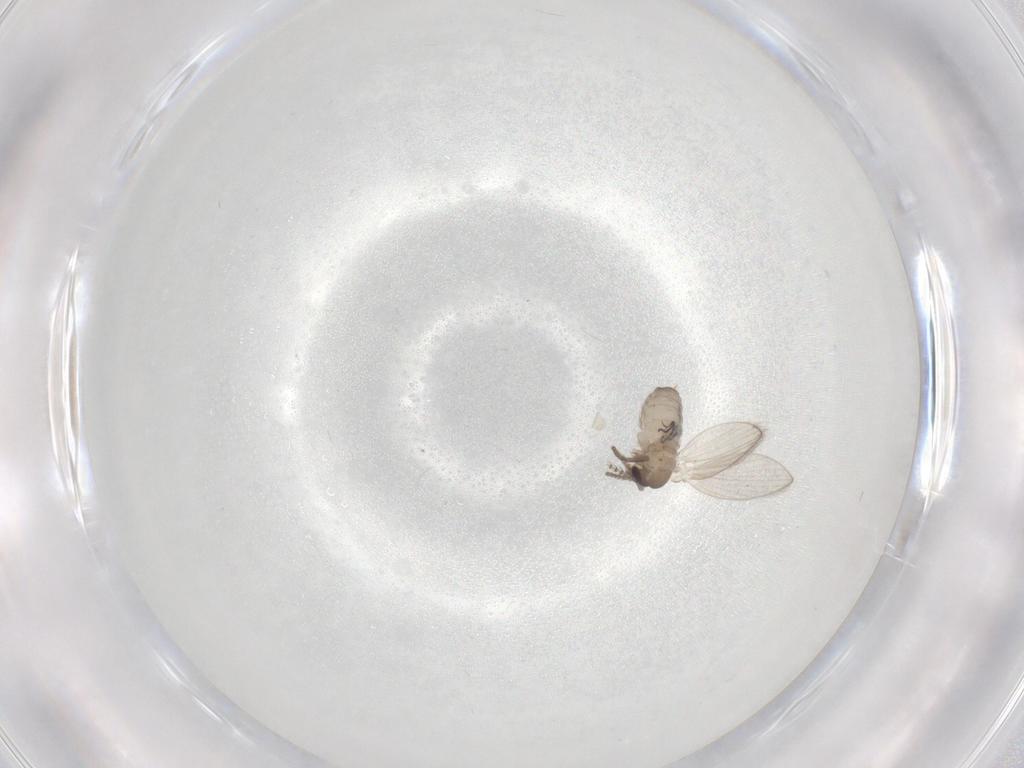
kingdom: Animalia
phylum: Arthropoda
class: Insecta
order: Diptera
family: Psychodidae
